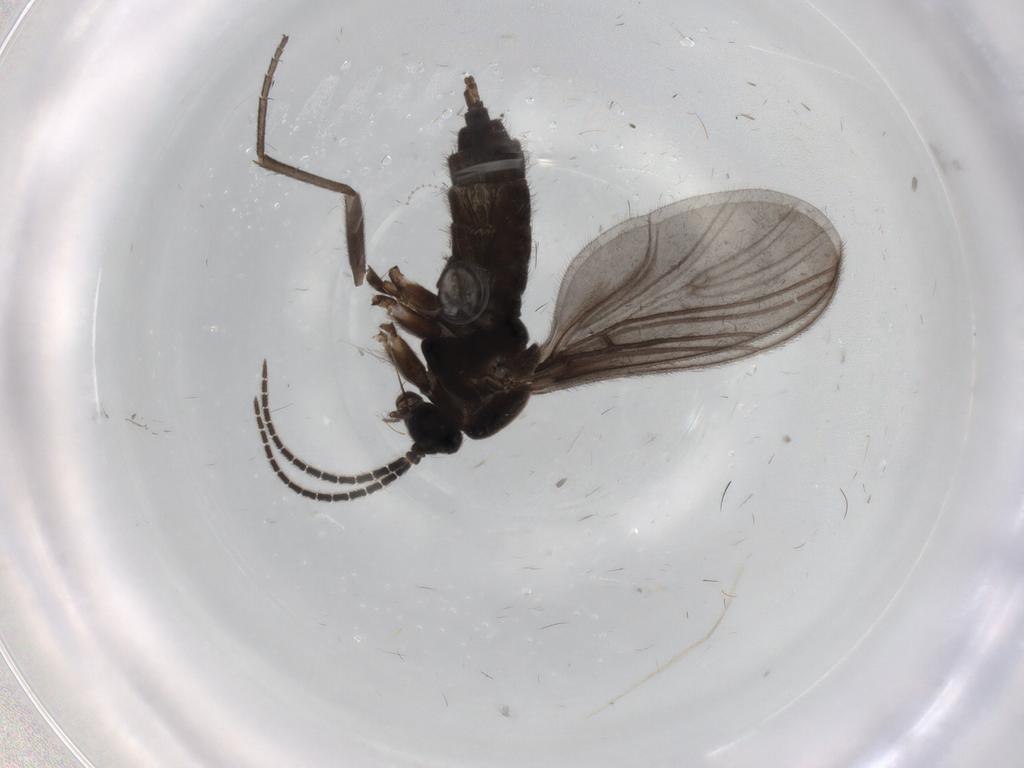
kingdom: Animalia
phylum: Arthropoda
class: Insecta
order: Diptera
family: Sciaridae
